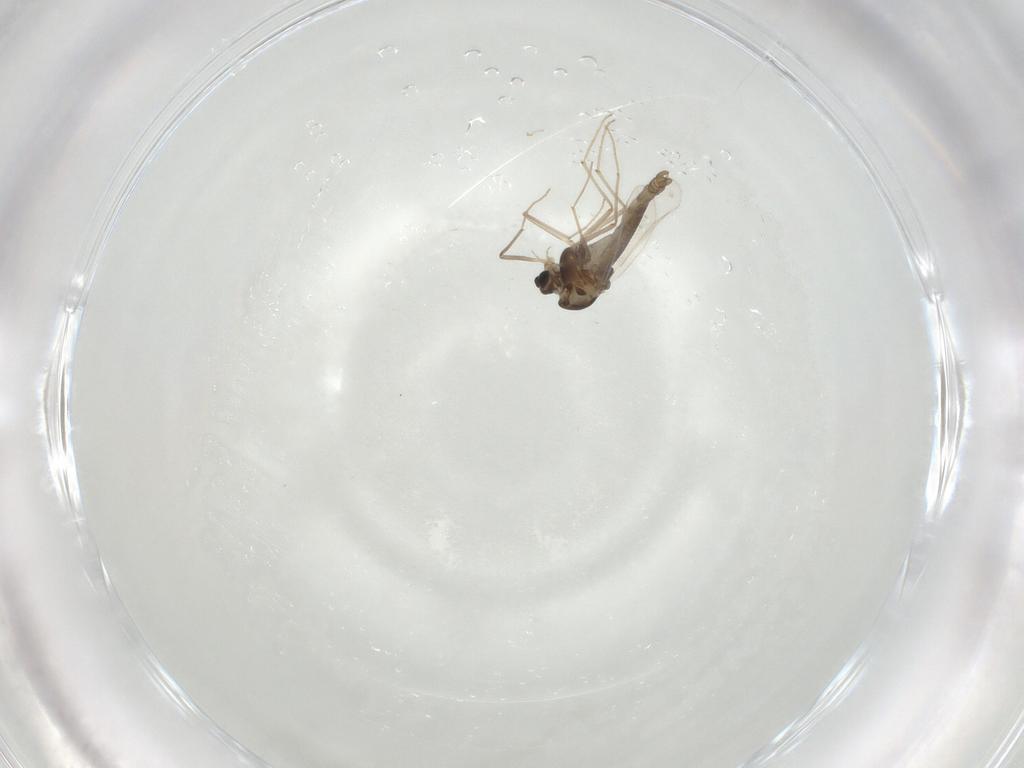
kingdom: Animalia
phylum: Arthropoda
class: Insecta
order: Diptera
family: Chironomidae
